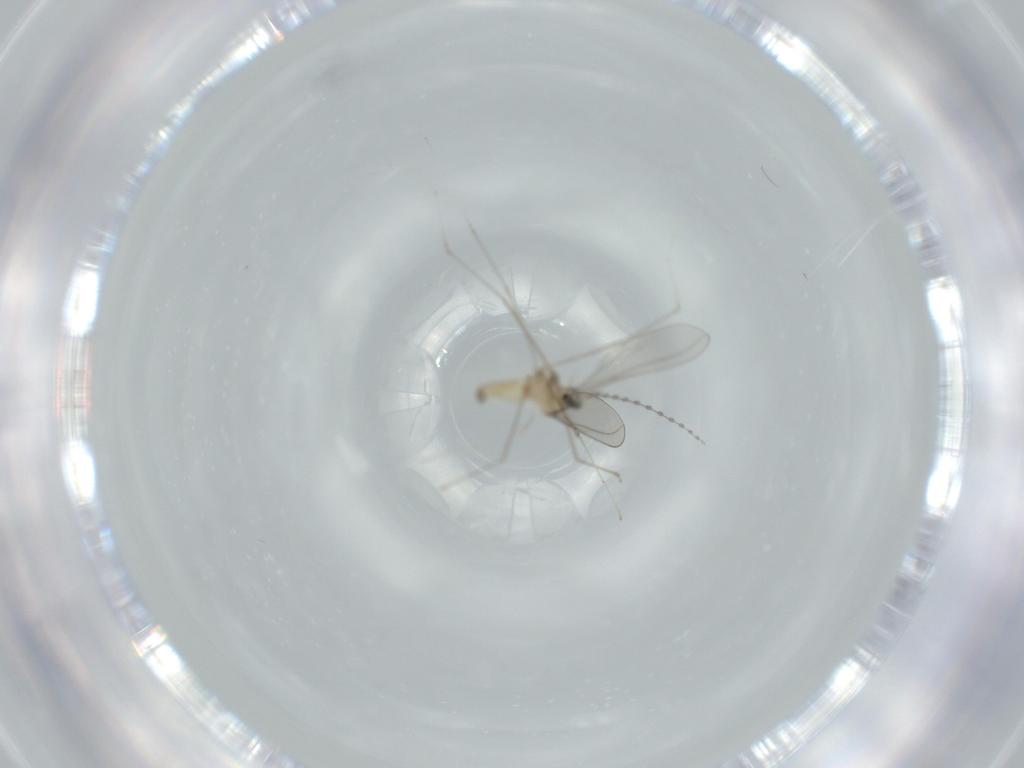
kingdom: Animalia
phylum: Arthropoda
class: Insecta
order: Diptera
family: Cecidomyiidae
